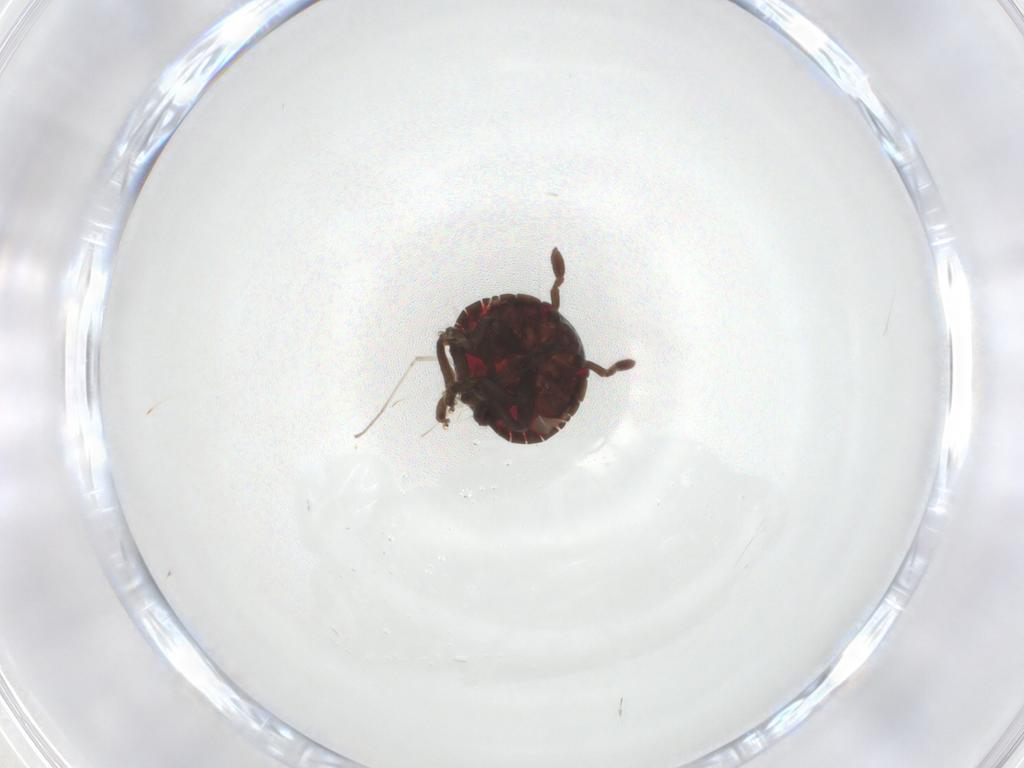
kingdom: Animalia
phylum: Arthropoda
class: Insecta
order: Hemiptera
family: Pentatomidae
